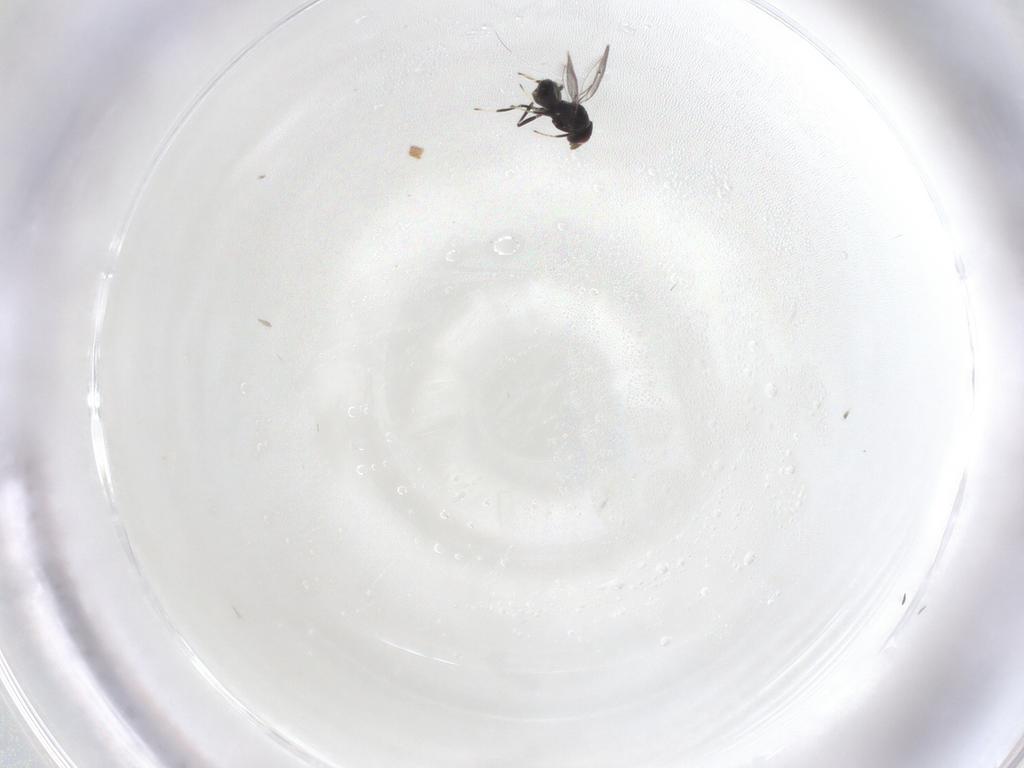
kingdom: Animalia
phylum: Arthropoda
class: Insecta
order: Hymenoptera
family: Eulophidae
